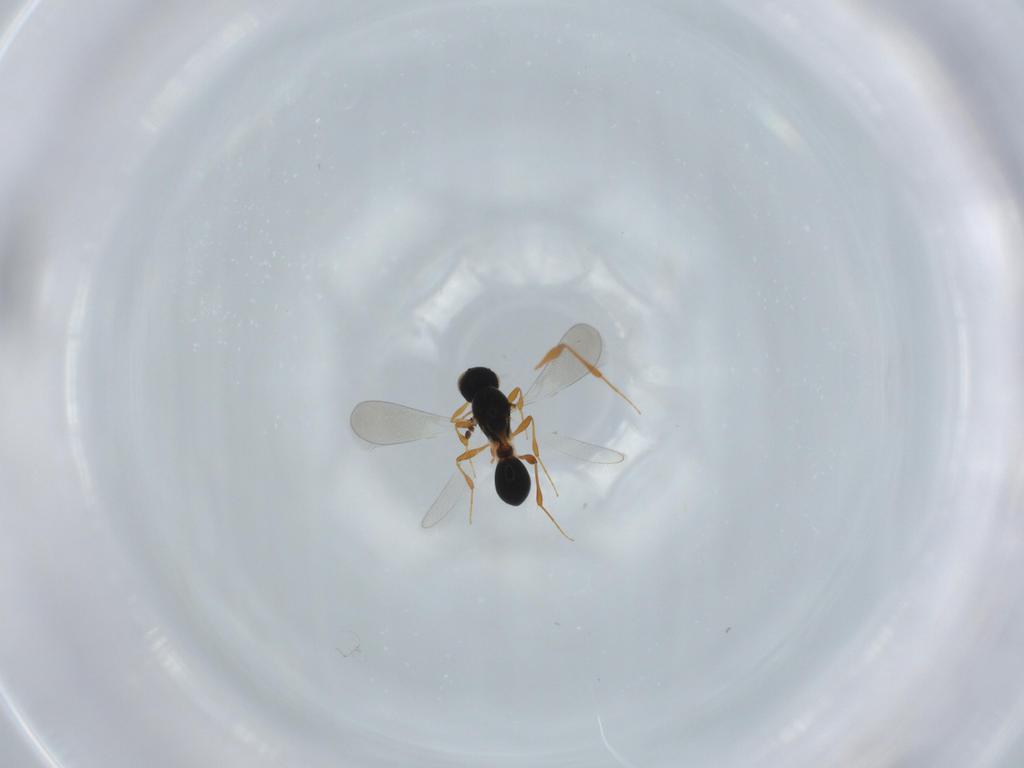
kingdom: Animalia
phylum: Arthropoda
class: Insecta
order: Hymenoptera
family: Platygastridae
